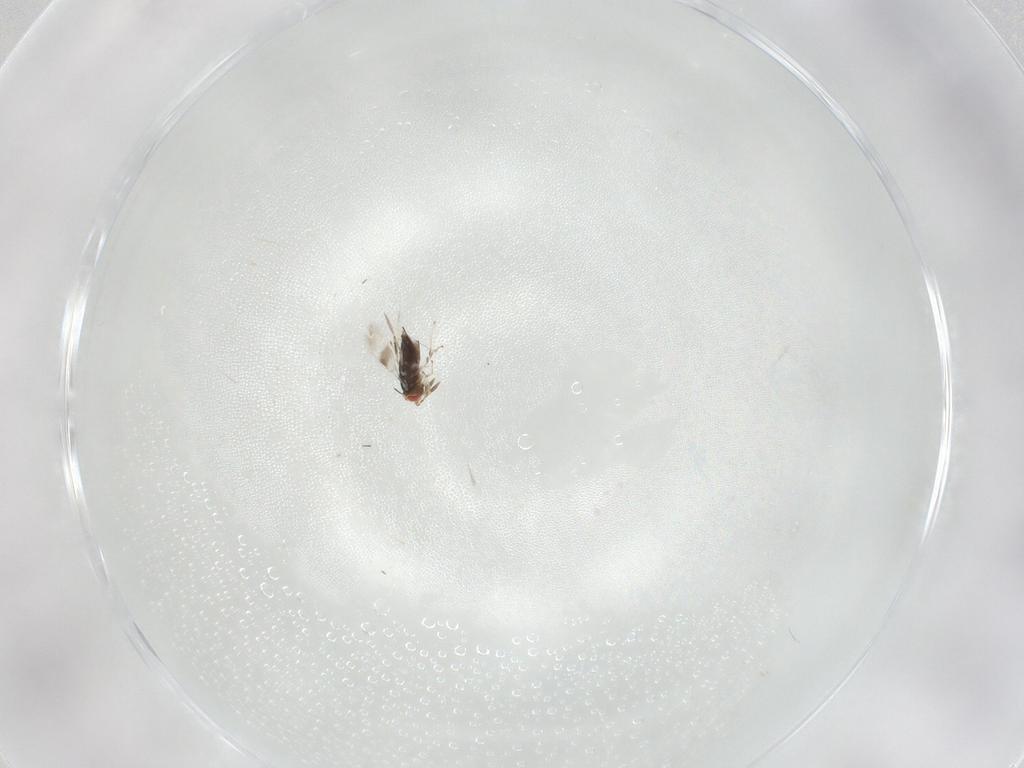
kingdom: Animalia
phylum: Arthropoda
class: Insecta
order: Hymenoptera
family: Azotidae
